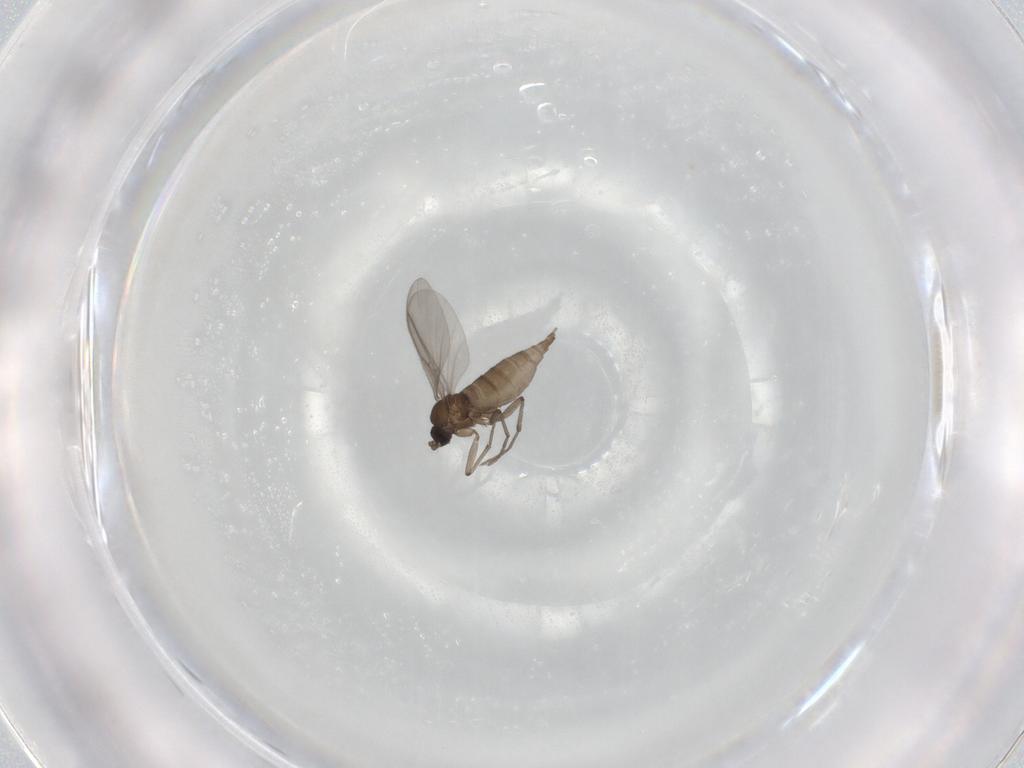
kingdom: Animalia
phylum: Arthropoda
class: Insecta
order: Diptera
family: Sciaridae
